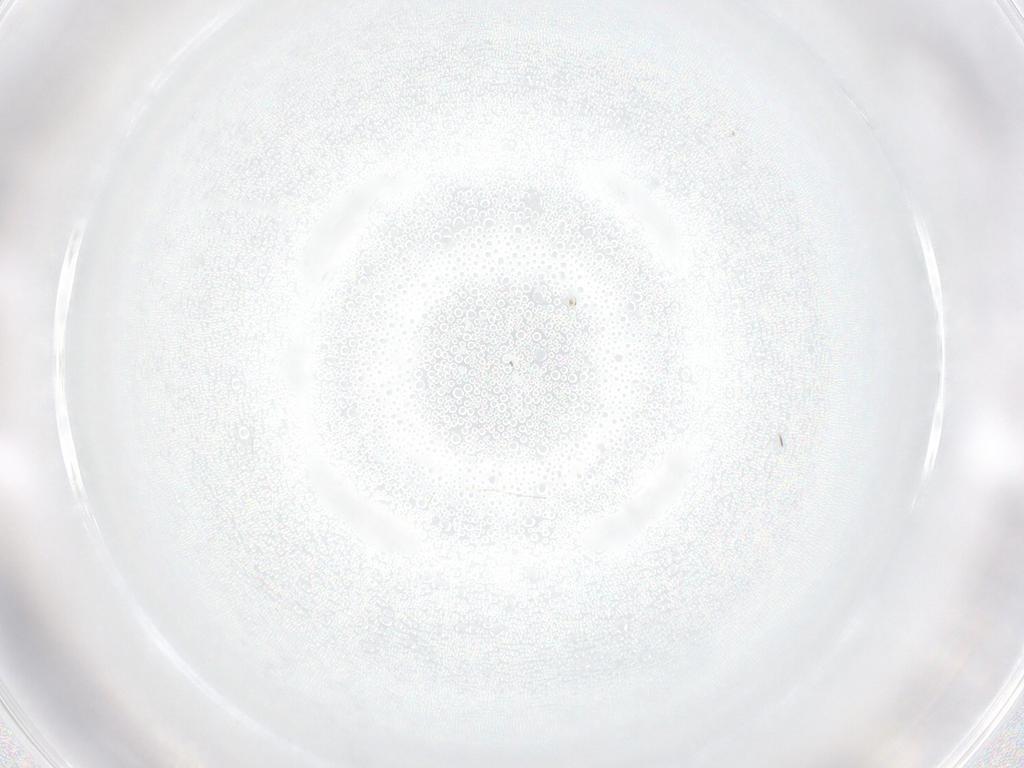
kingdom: Animalia
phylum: Arthropoda
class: Insecta
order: Diptera
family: Cecidomyiidae
